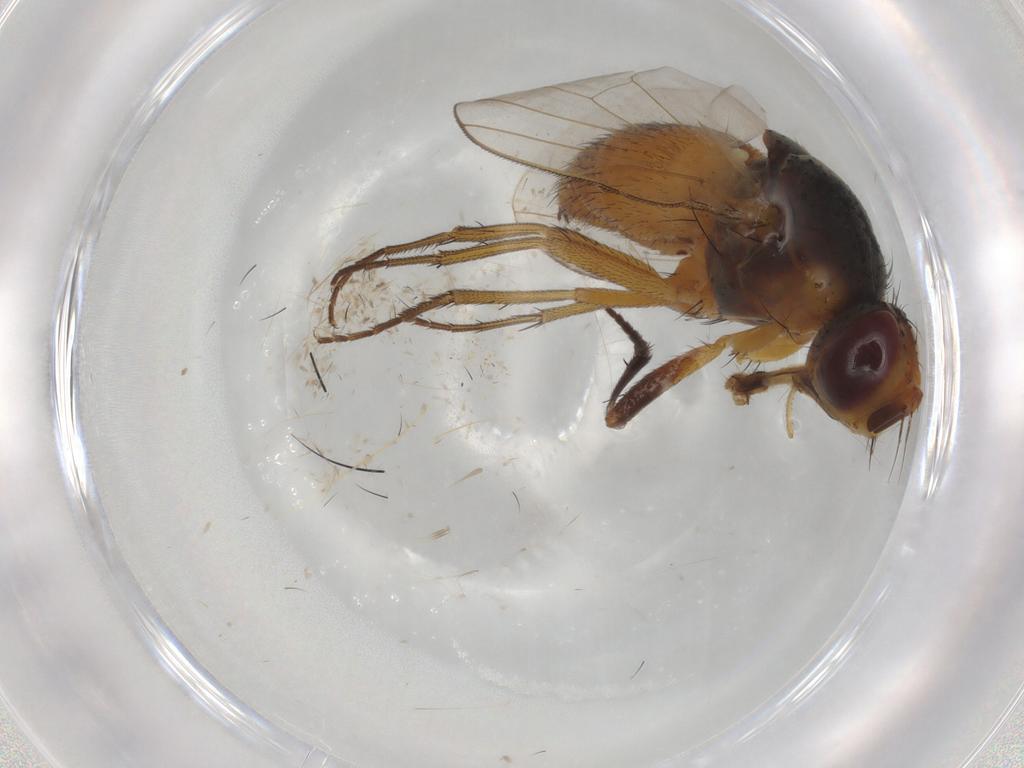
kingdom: Animalia
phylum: Arthropoda
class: Insecta
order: Diptera
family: Muscidae
